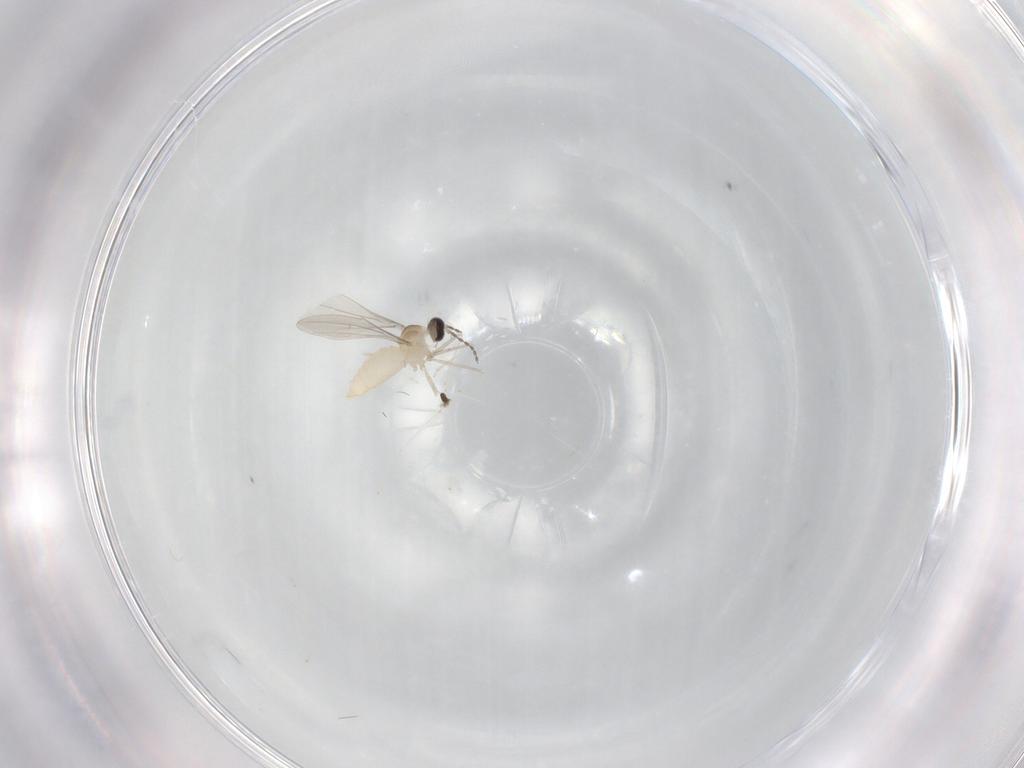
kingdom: Animalia
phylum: Arthropoda
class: Insecta
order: Diptera
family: Cecidomyiidae
